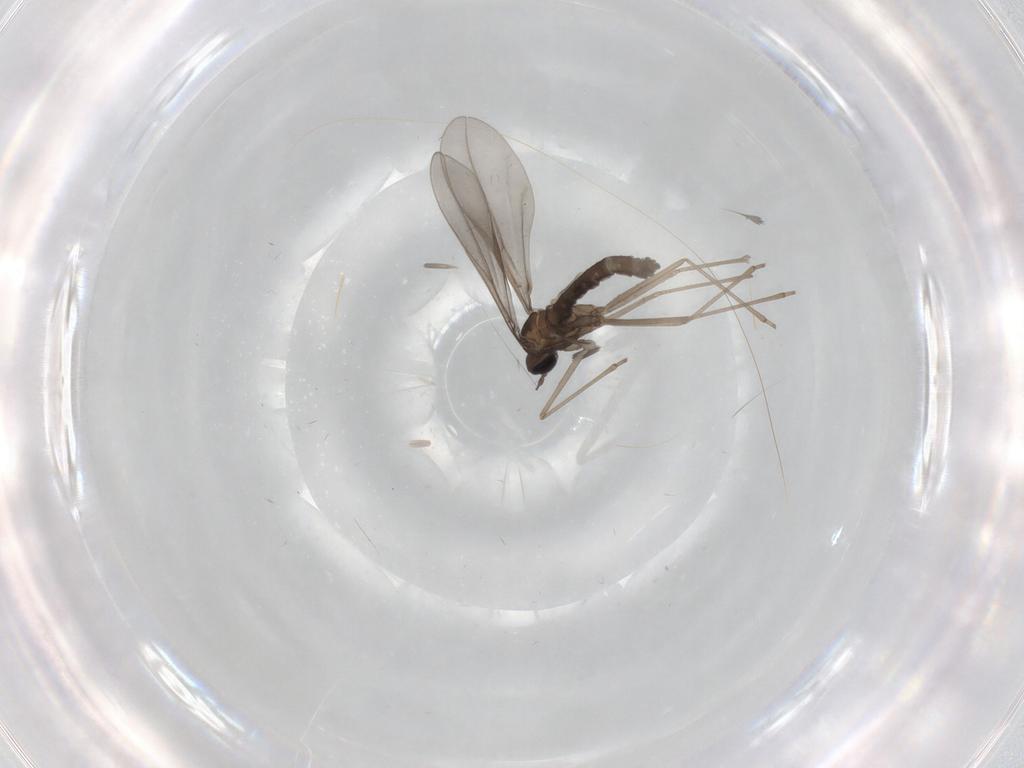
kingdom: Animalia
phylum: Arthropoda
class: Insecta
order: Diptera
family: Cecidomyiidae
